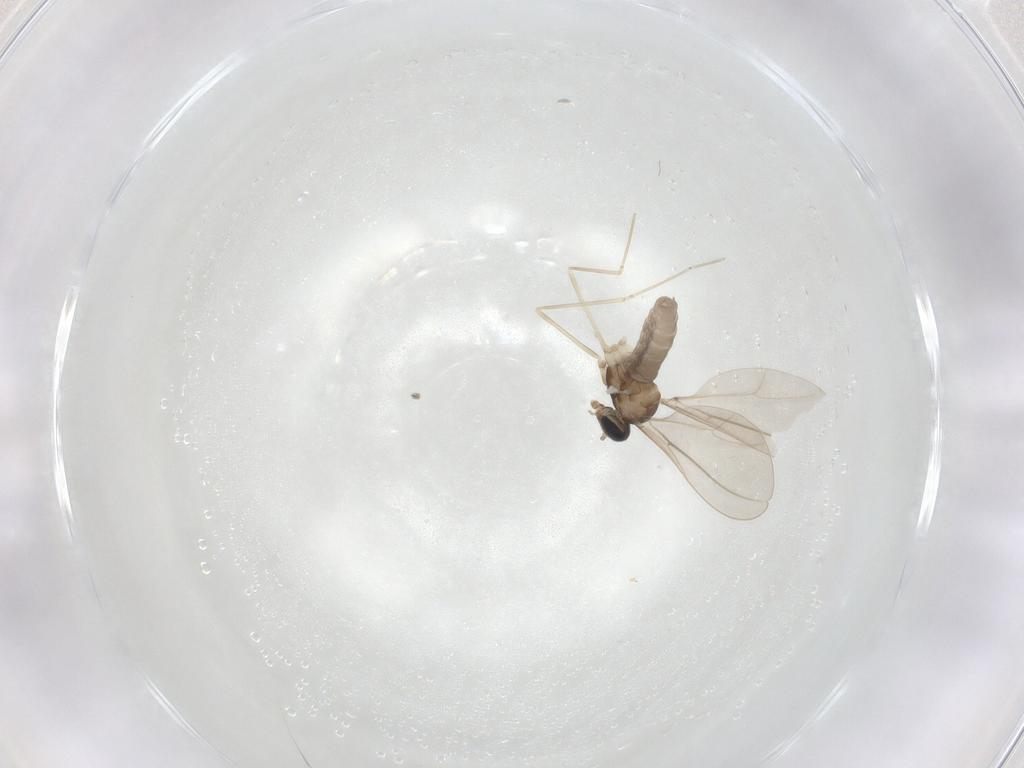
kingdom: Animalia
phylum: Arthropoda
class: Insecta
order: Diptera
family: Cecidomyiidae
